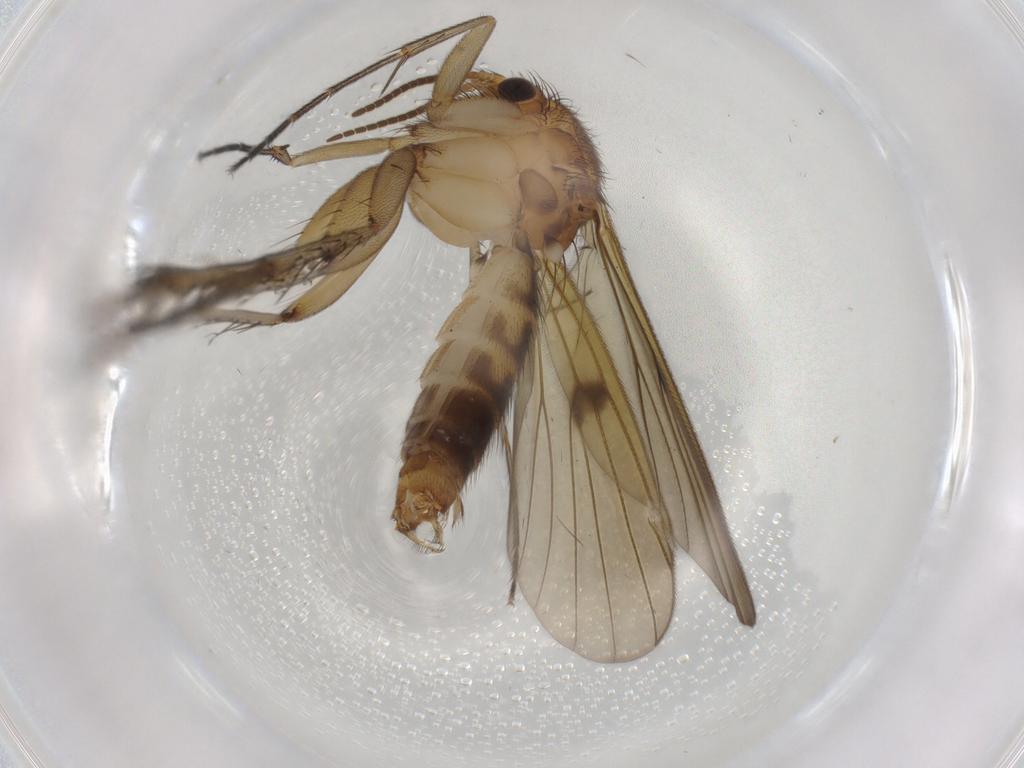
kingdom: Animalia
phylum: Arthropoda
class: Insecta
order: Diptera
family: Mycetophilidae
